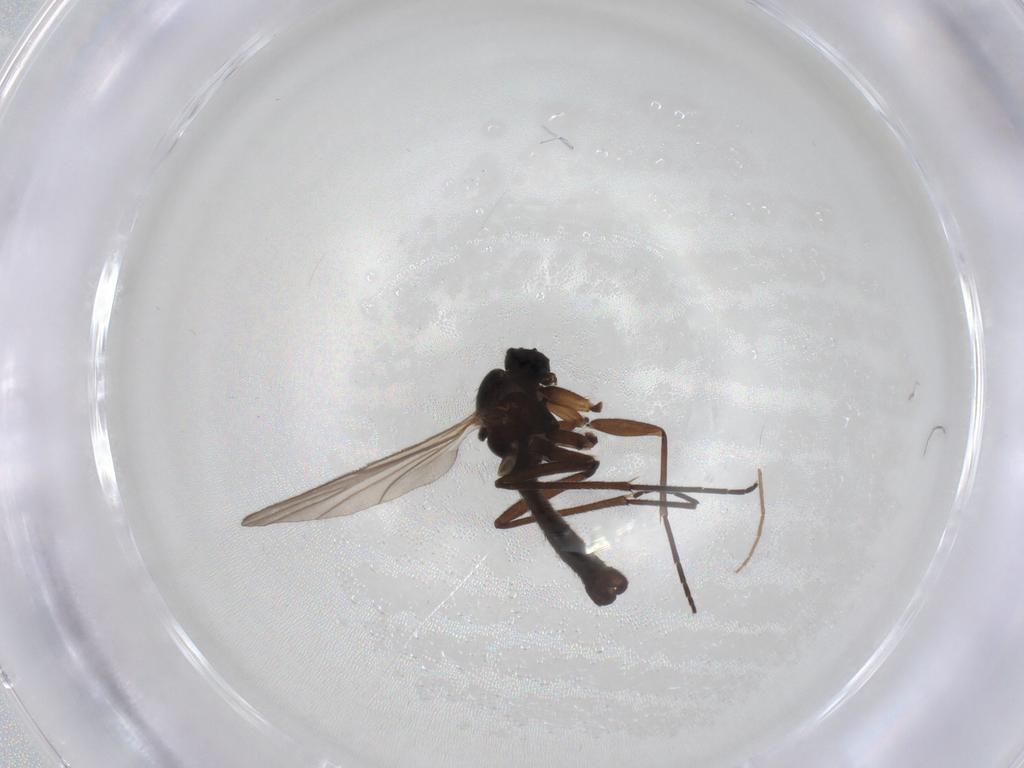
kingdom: Animalia
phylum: Arthropoda
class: Insecta
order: Diptera
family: Sciaridae
